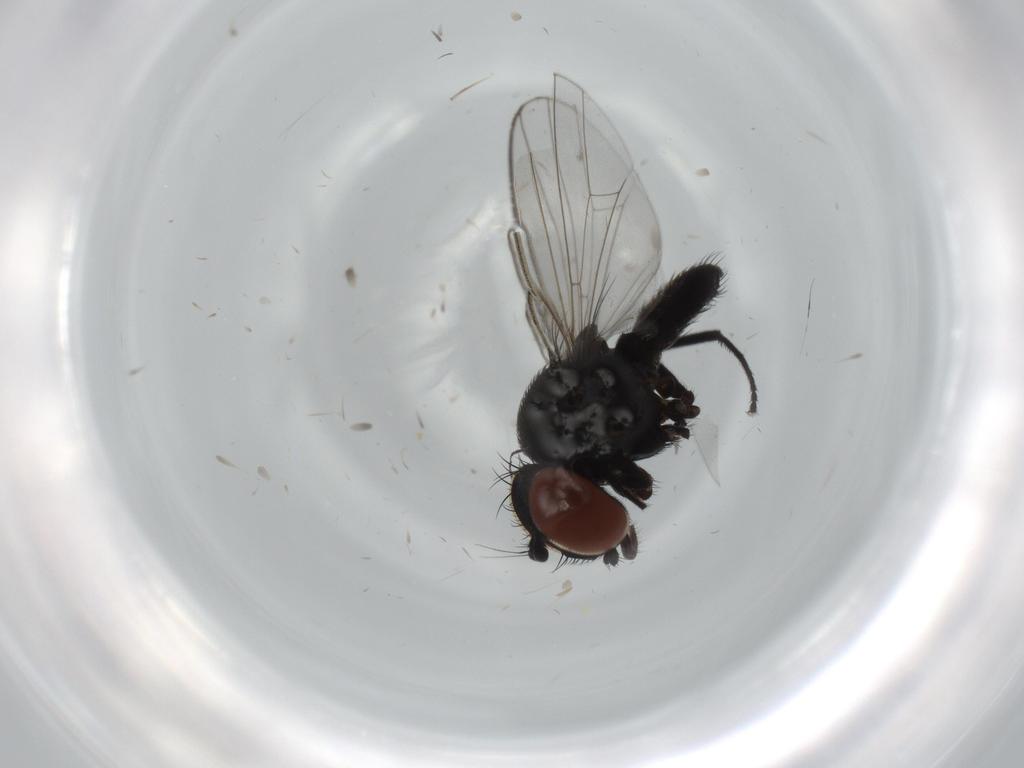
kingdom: Animalia
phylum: Arthropoda
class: Insecta
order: Diptera
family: Milichiidae
